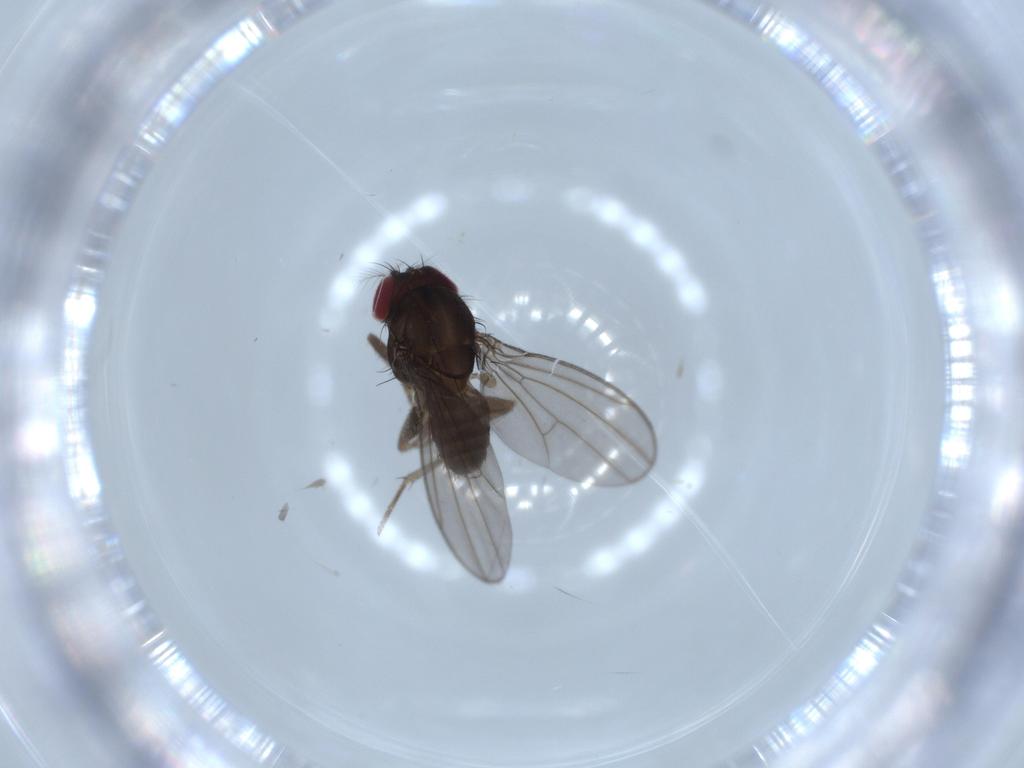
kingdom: Animalia
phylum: Arthropoda
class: Insecta
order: Diptera
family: Drosophilidae
